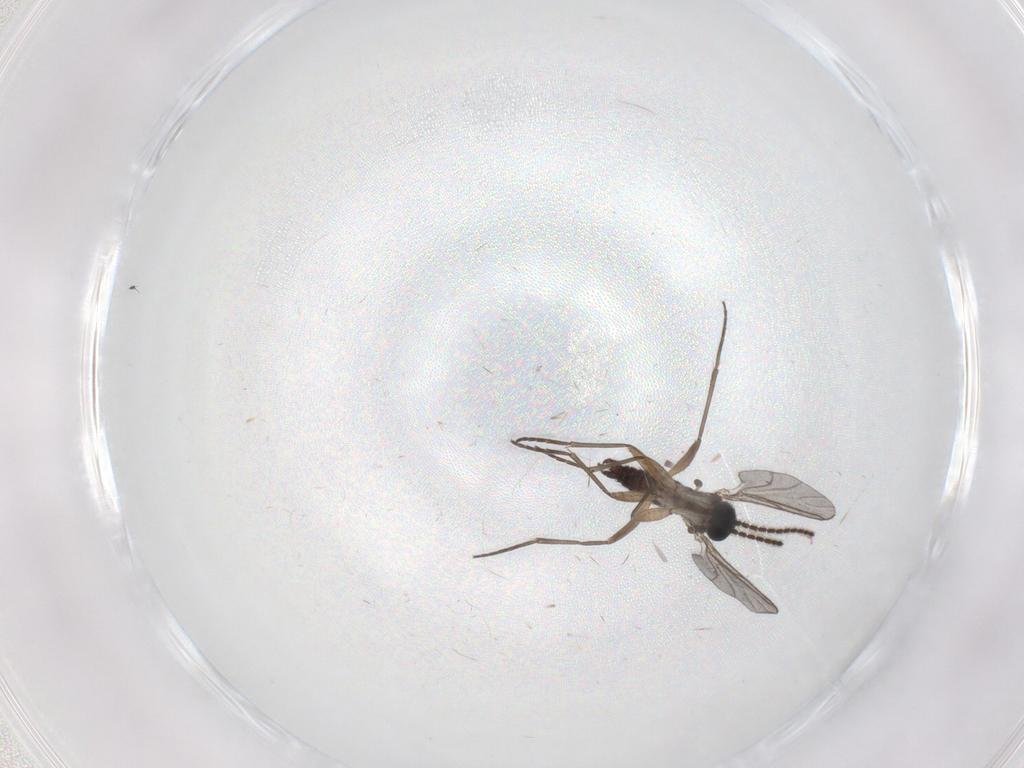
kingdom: Animalia
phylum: Arthropoda
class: Insecta
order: Diptera
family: Sciaridae
